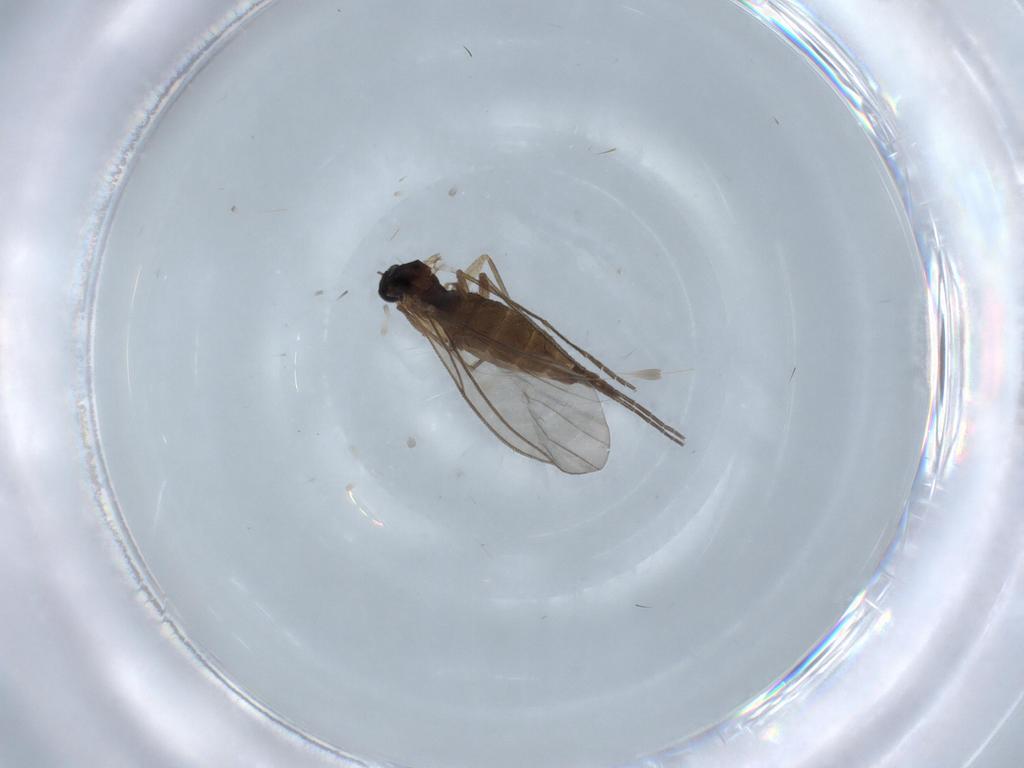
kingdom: Animalia
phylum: Arthropoda
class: Insecta
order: Diptera
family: Sciaridae
